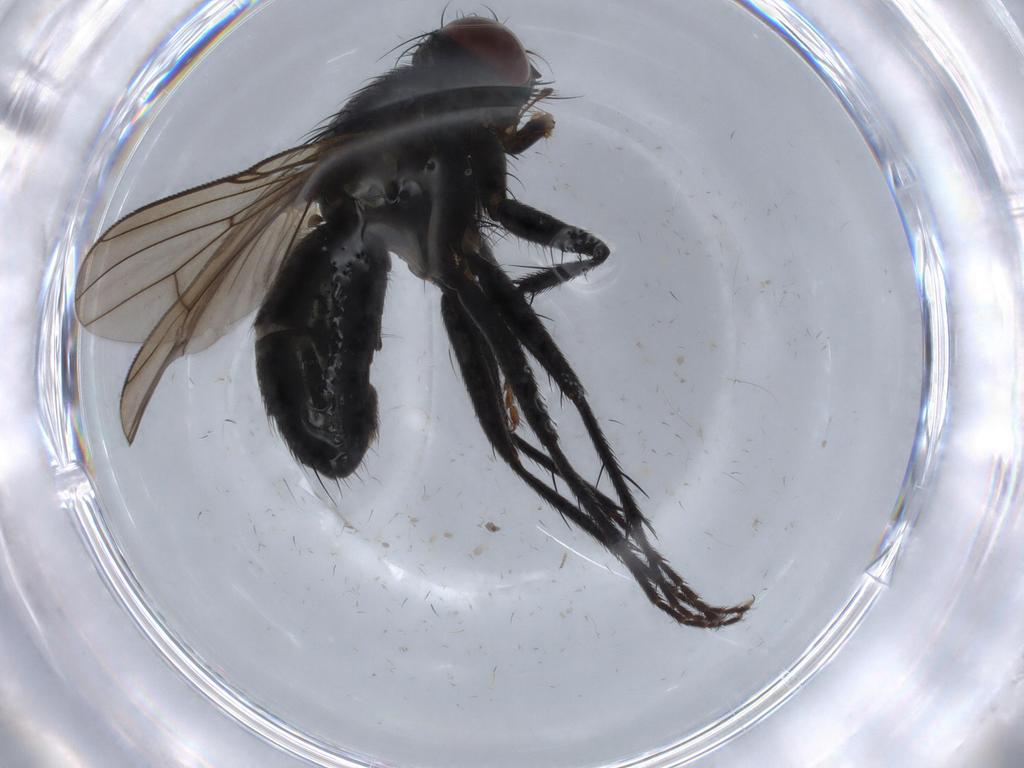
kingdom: Animalia
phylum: Arthropoda
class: Insecta
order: Diptera
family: Muscidae
